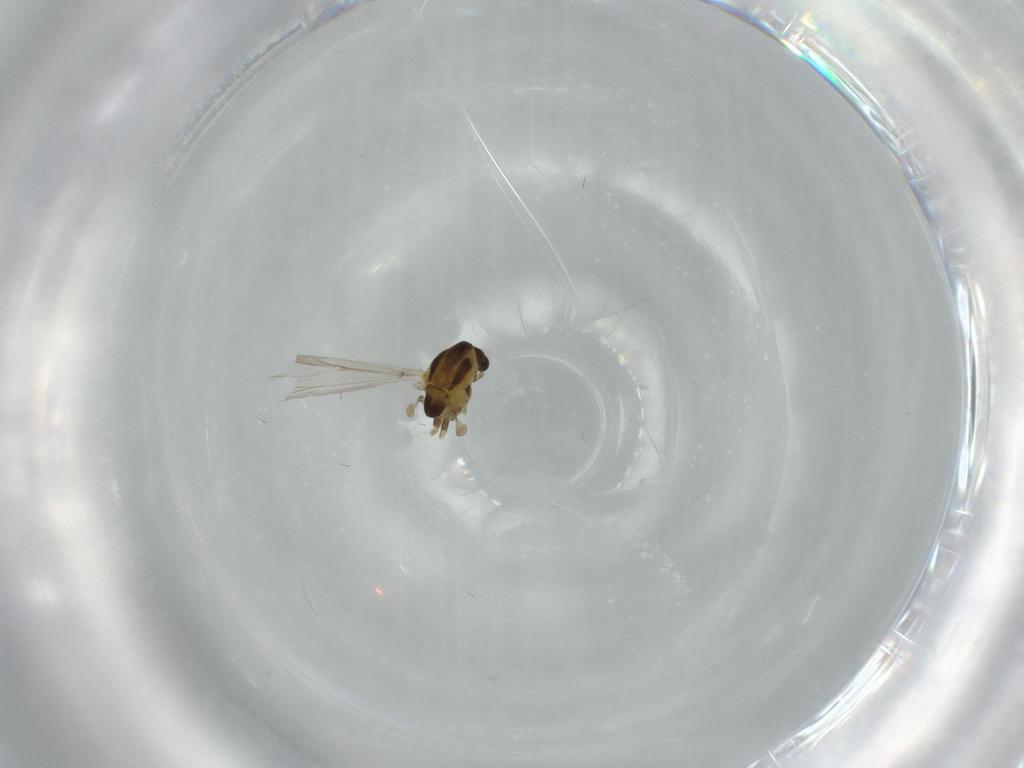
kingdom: Animalia
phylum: Arthropoda
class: Insecta
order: Diptera
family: Chironomidae
